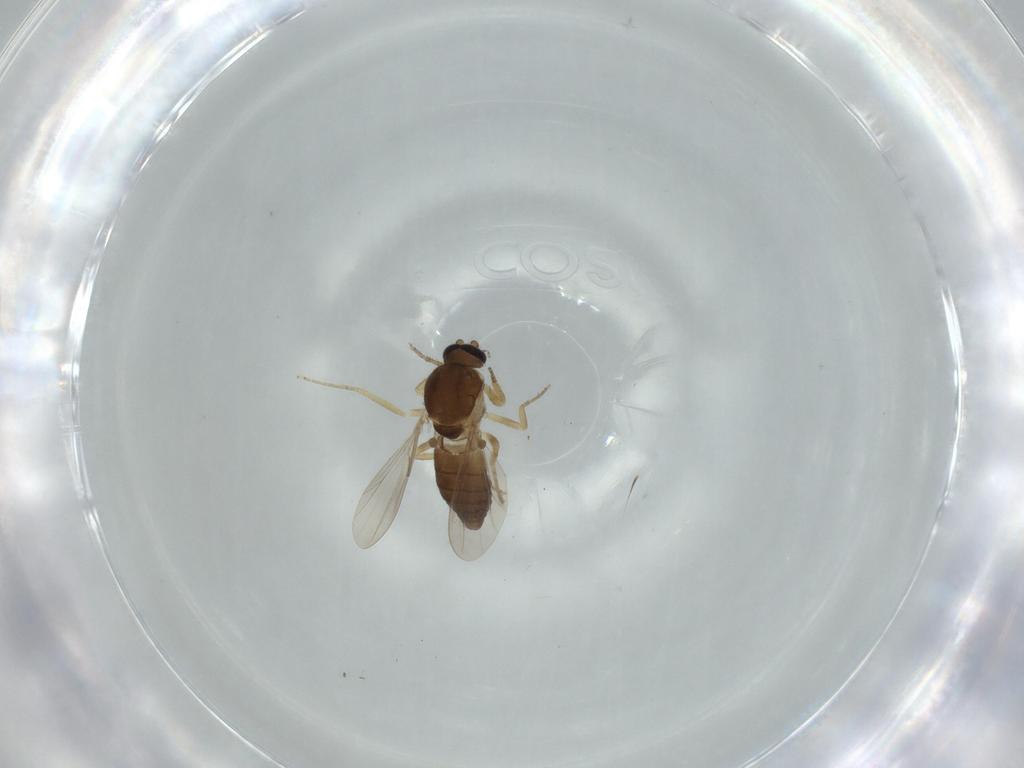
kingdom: Animalia
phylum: Arthropoda
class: Insecta
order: Diptera
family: Ceratopogonidae
